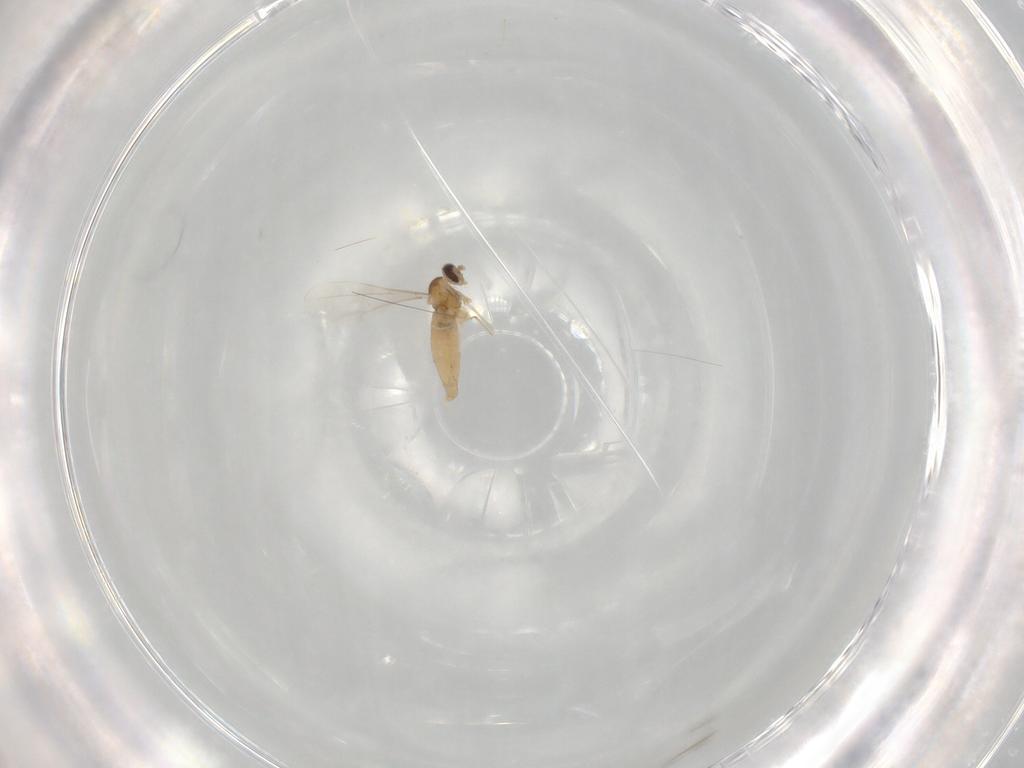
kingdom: Animalia
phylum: Arthropoda
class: Insecta
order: Diptera
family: Cecidomyiidae
